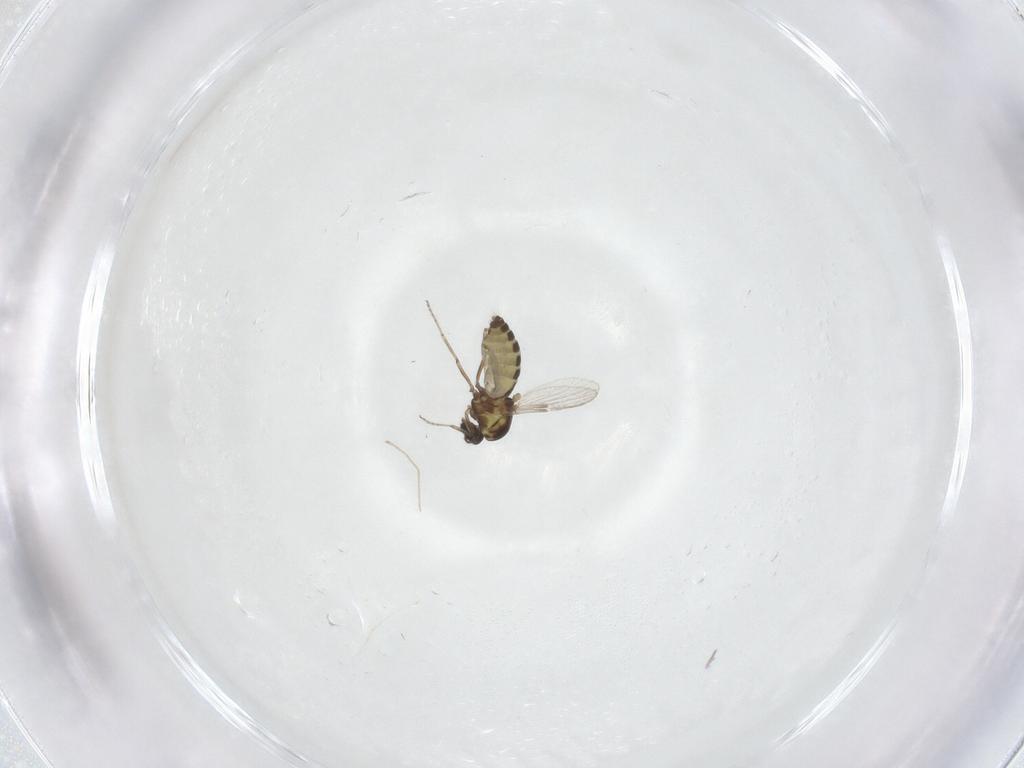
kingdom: Animalia
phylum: Arthropoda
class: Insecta
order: Diptera
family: Ceratopogonidae
